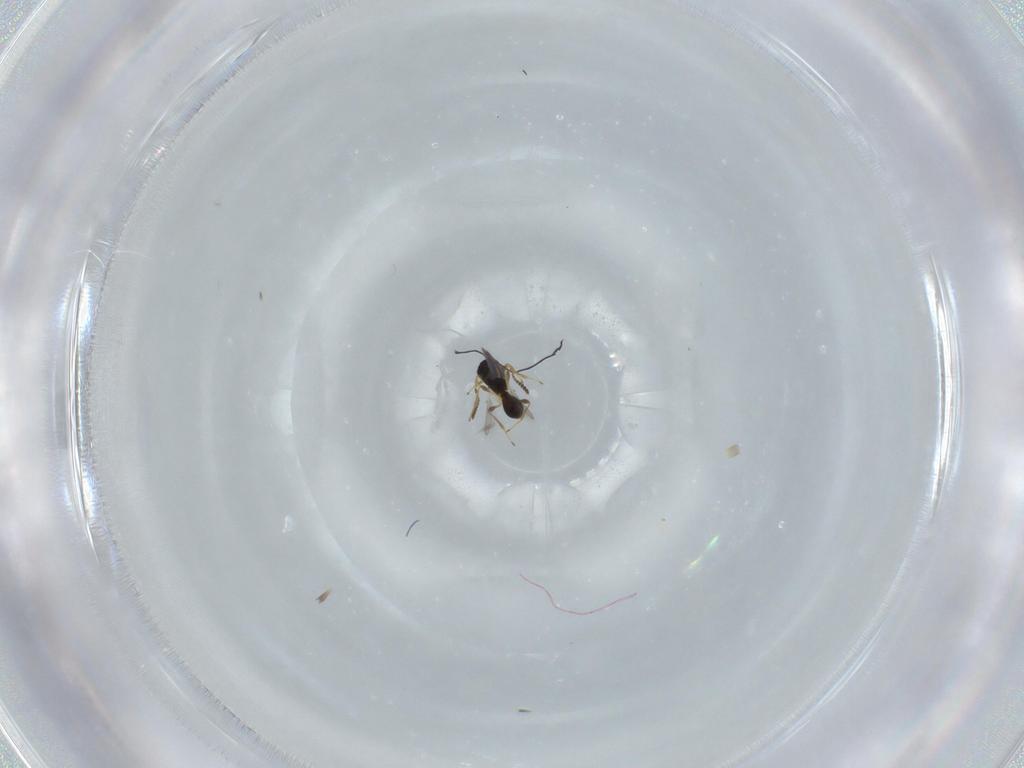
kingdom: Animalia
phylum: Arthropoda
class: Insecta
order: Hymenoptera
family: Platygastridae
